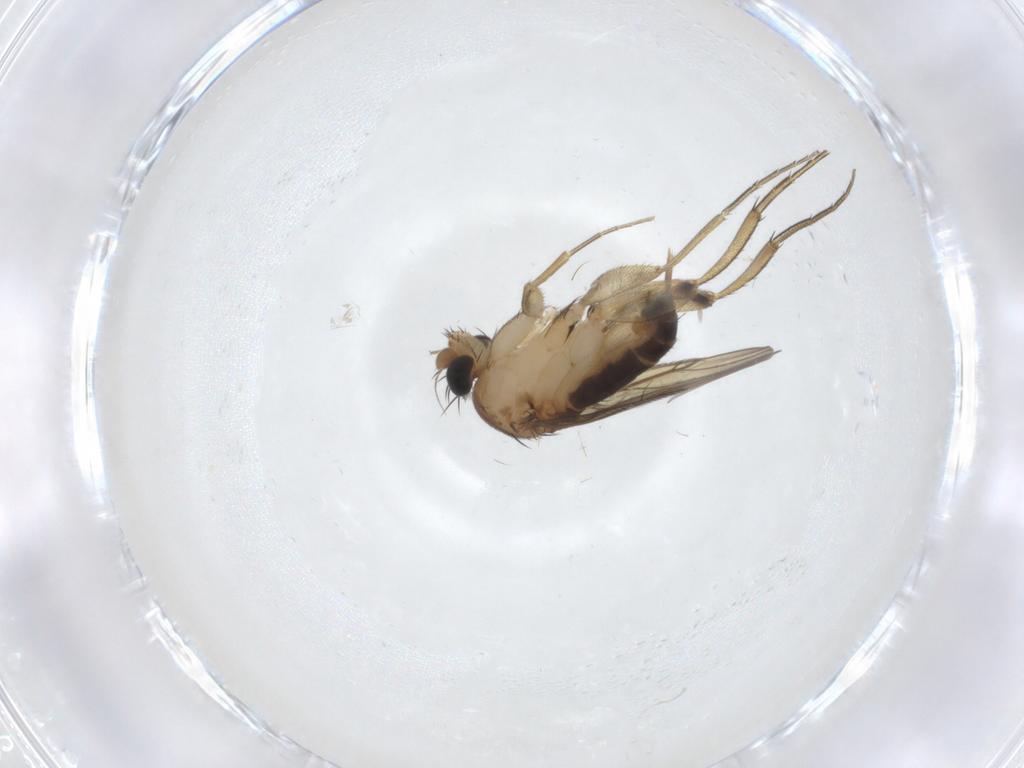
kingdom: Animalia
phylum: Arthropoda
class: Insecta
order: Diptera
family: Phoridae
